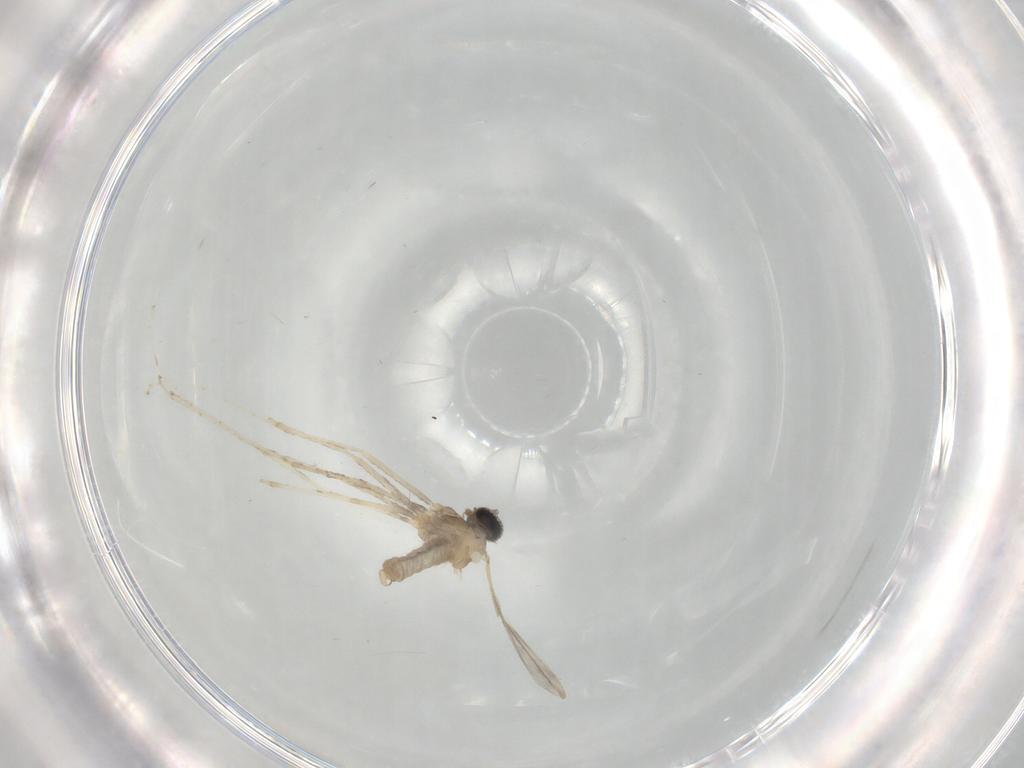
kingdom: Animalia
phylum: Arthropoda
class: Insecta
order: Diptera
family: Cecidomyiidae
